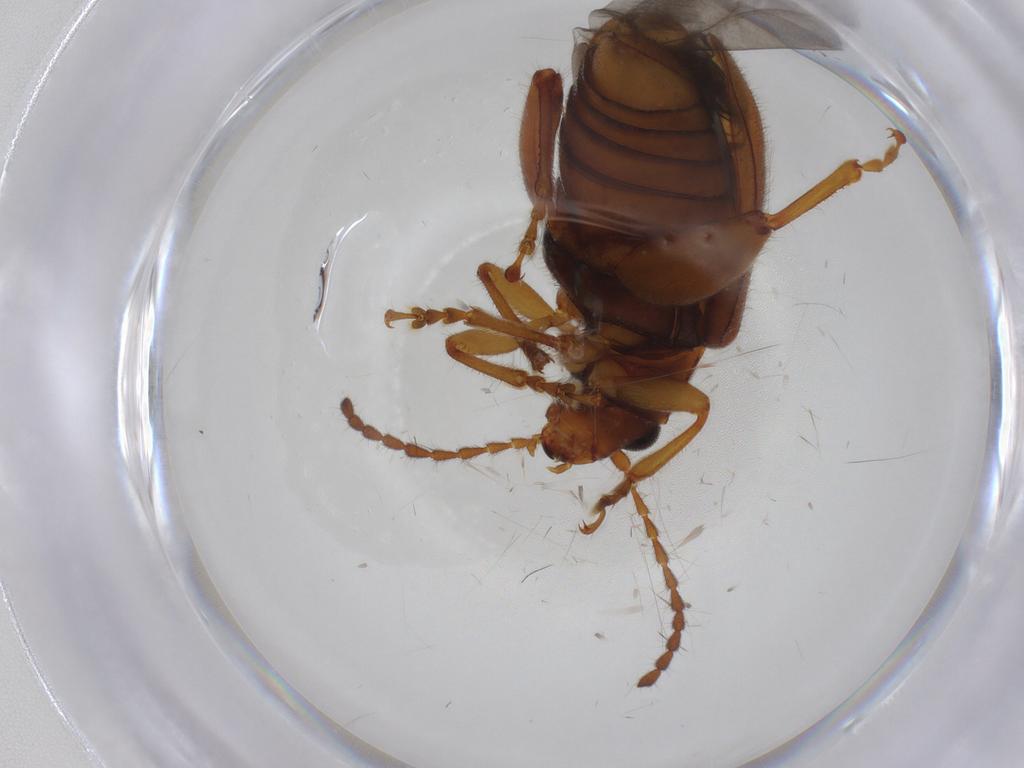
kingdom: Animalia
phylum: Arthropoda
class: Insecta
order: Coleoptera
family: Chrysomelidae
